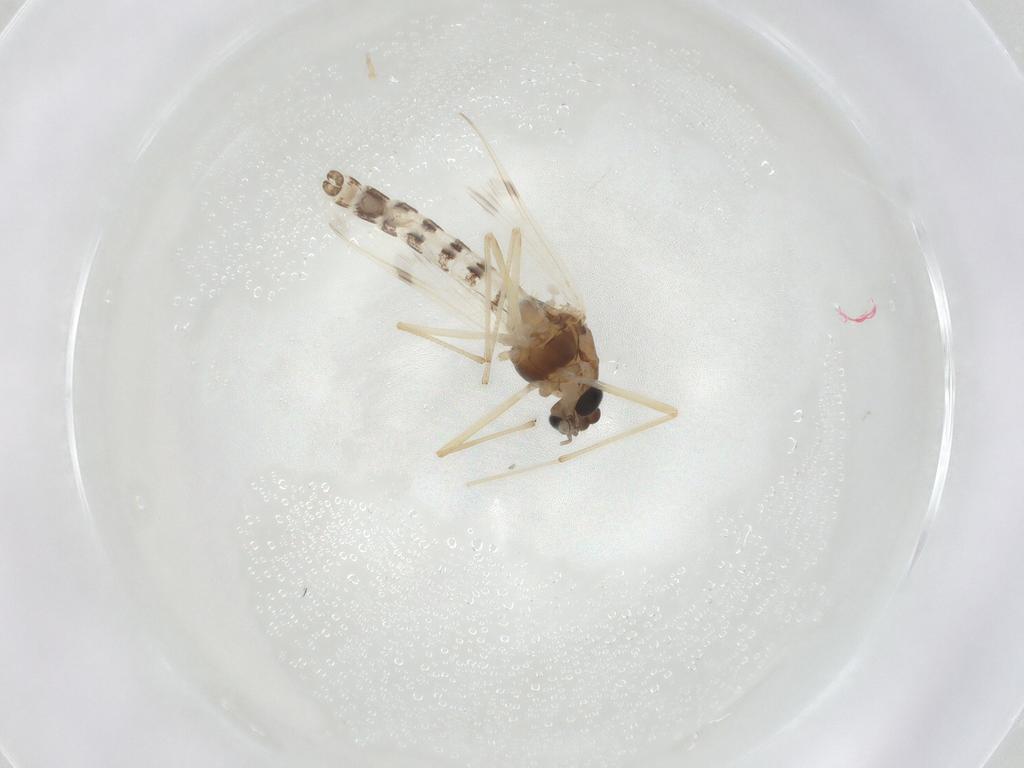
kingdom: Animalia
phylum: Arthropoda
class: Insecta
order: Diptera
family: Chironomidae
